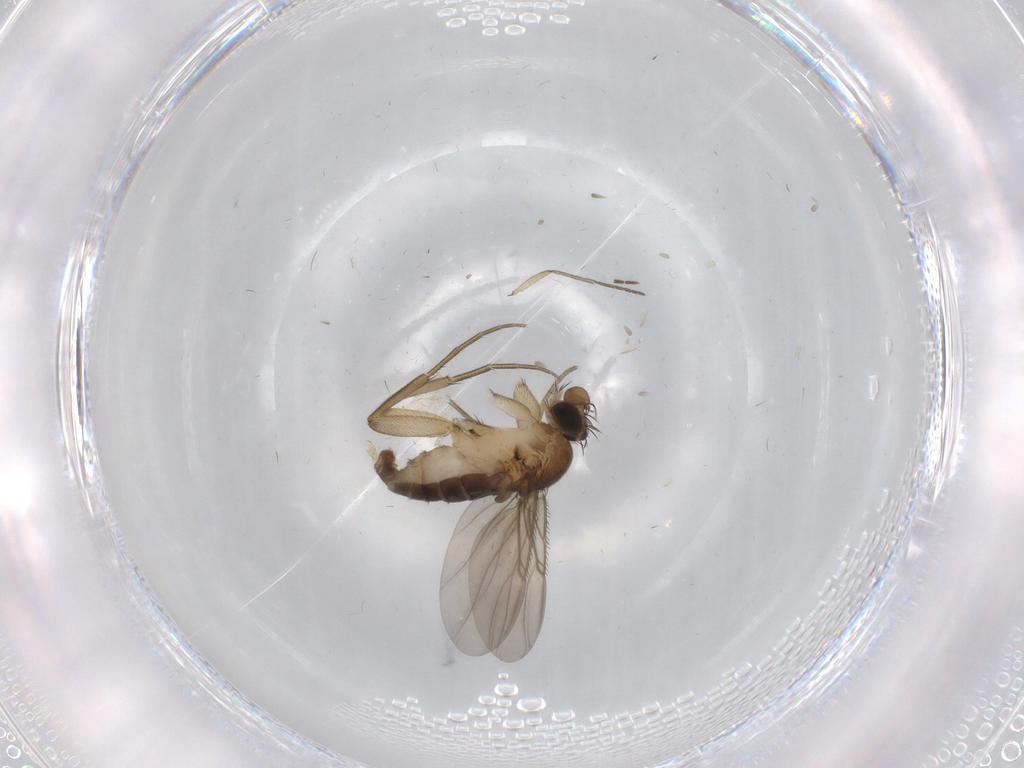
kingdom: Animalia
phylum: Arthropoda
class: Insecta
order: Diptera
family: Phoridae
